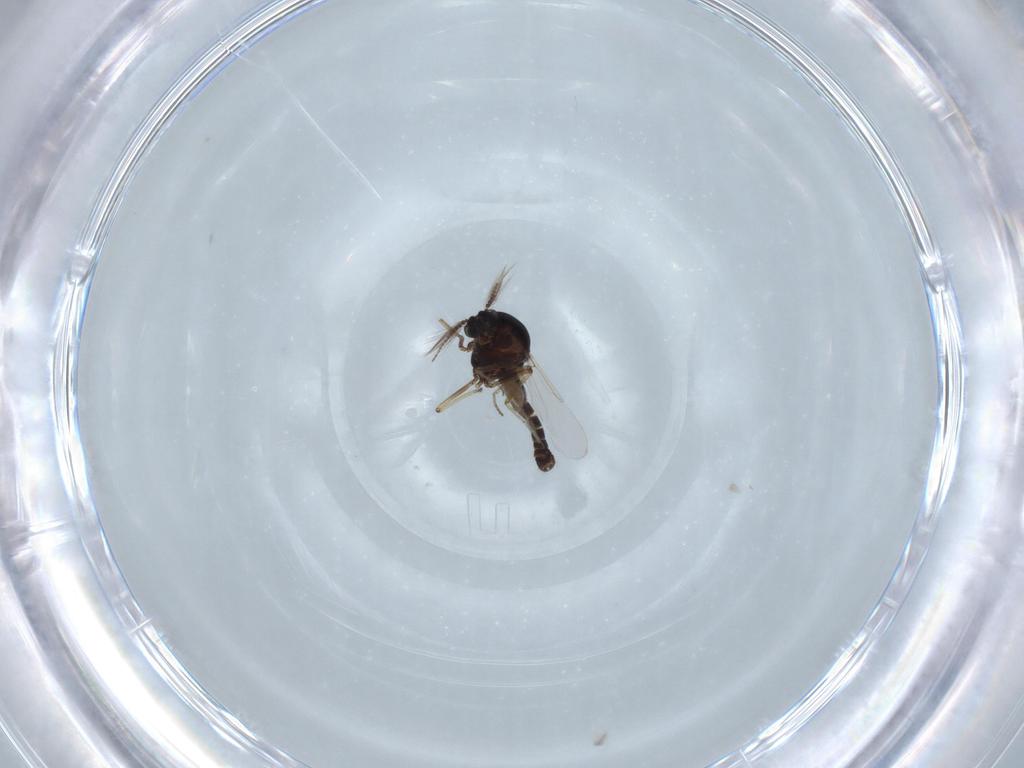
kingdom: Animalia
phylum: Arthropoda
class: Insecta
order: Diptera
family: Ceratopogonidae
